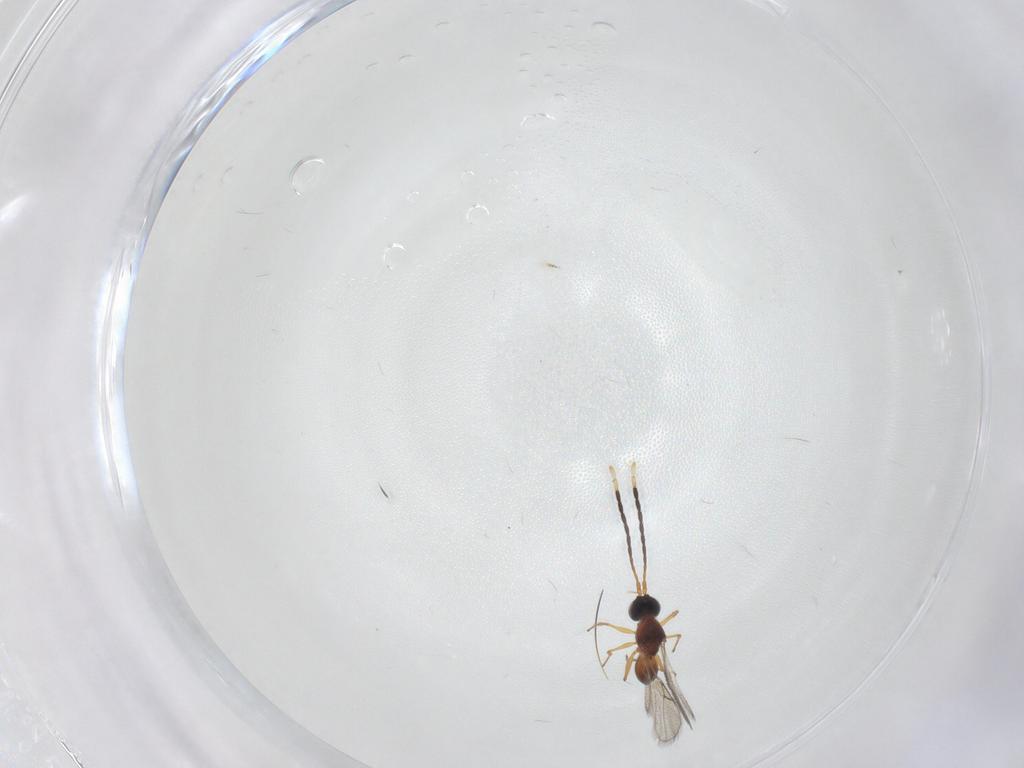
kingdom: Animalia
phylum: Arthropoda
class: Insecta
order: Hymenoptera
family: Figitidae
